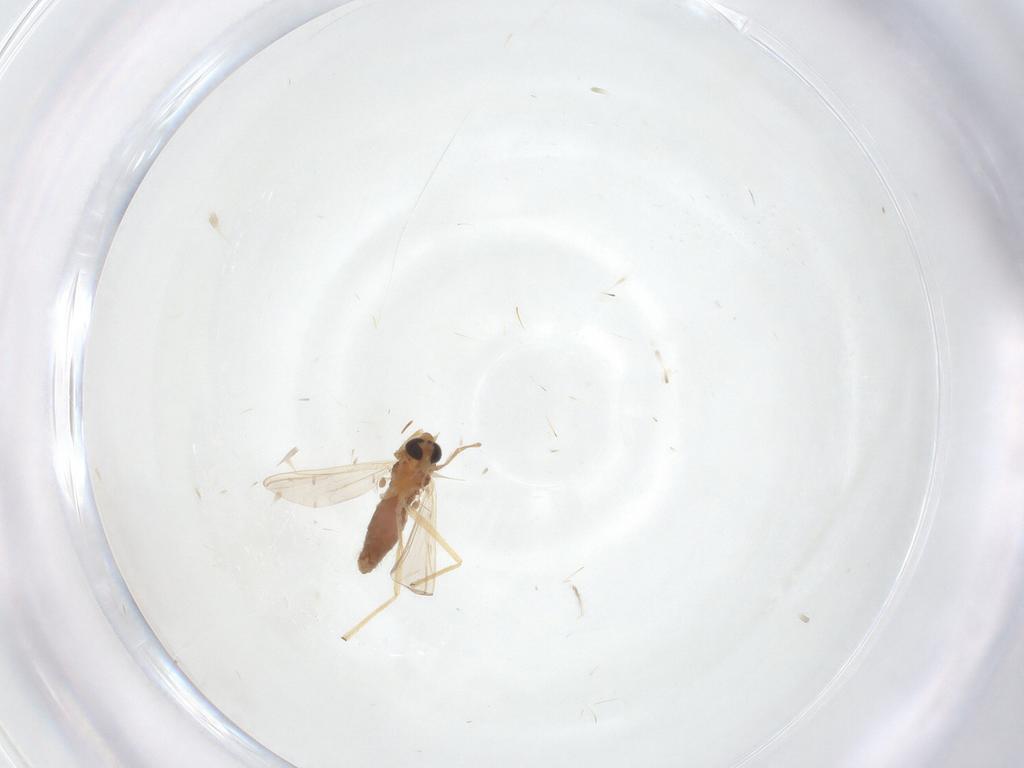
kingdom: Animalia
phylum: Arthropoda
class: Insecta
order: Diptera
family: Chironomidae
